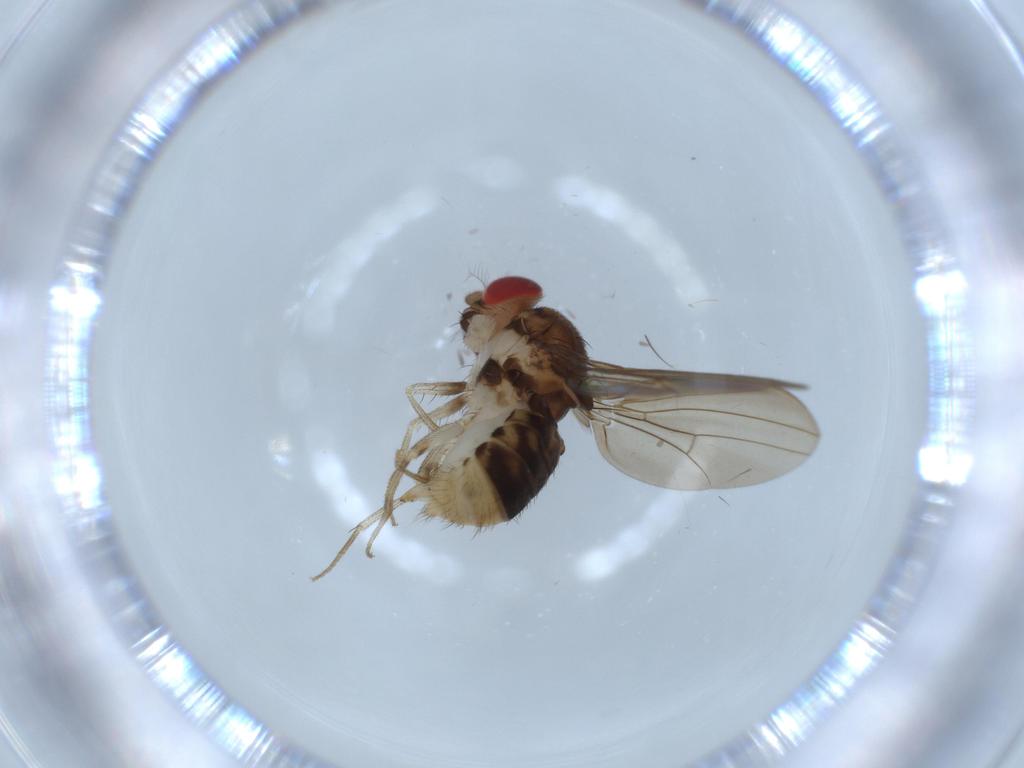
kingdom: Animalia
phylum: Arthropoda
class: Insecta
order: Diptera
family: Drosophilidae
